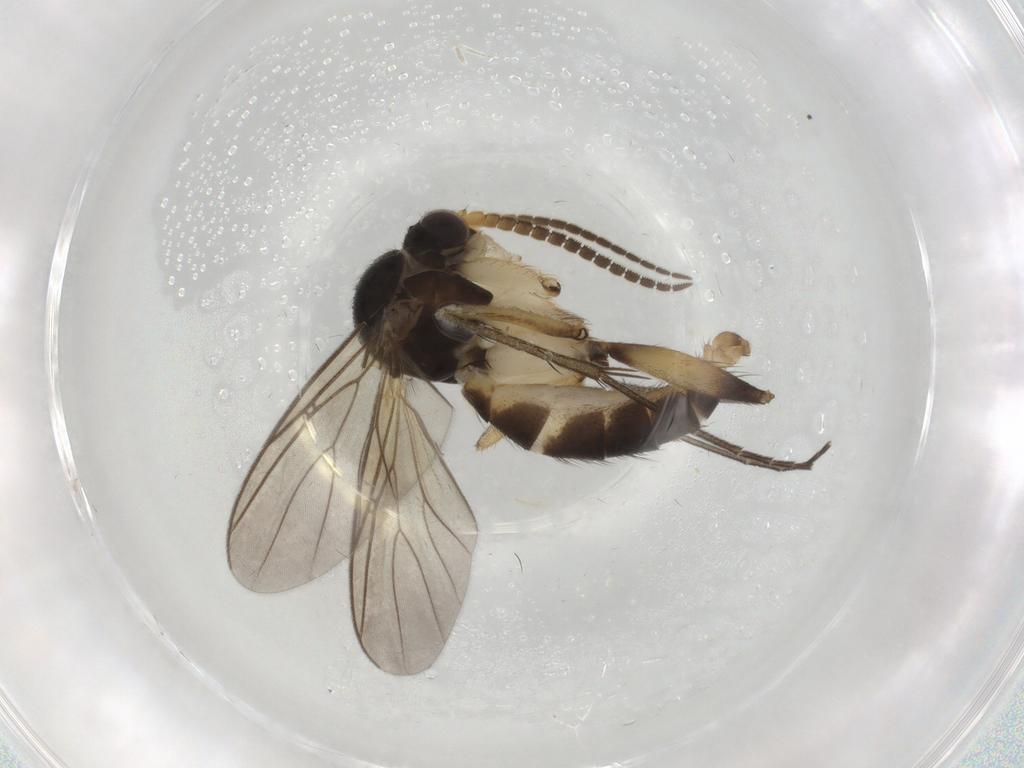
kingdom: Animalia
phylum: Arthropoda
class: Insecta
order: Diptera
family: Mycetophilidae
